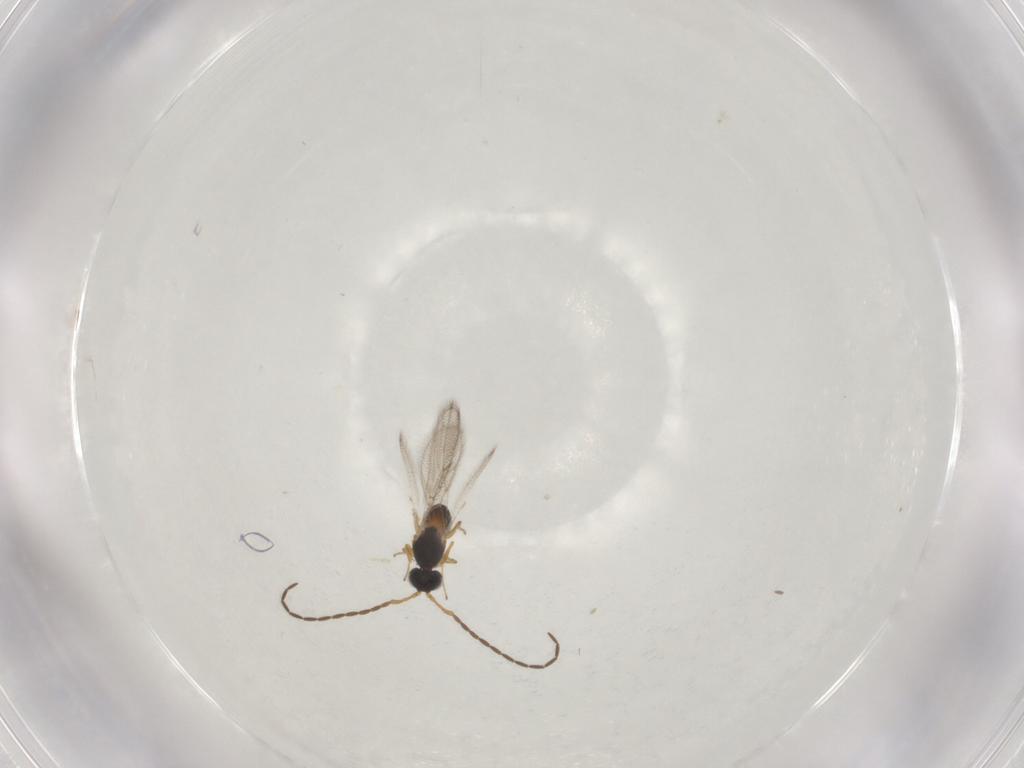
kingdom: Animalia
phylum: Arthropoda
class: Insecta
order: Hymenoptera
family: Figitidae
